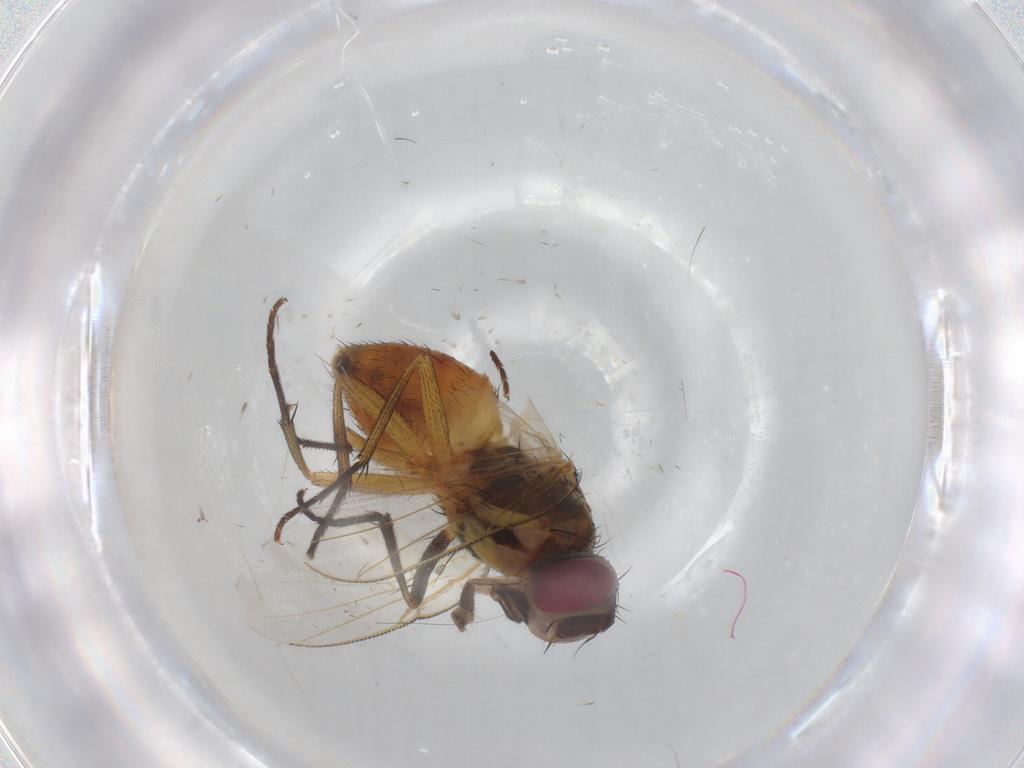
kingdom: Animalia
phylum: Arthropoda
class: Insecta
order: Diptera
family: Muscidae
